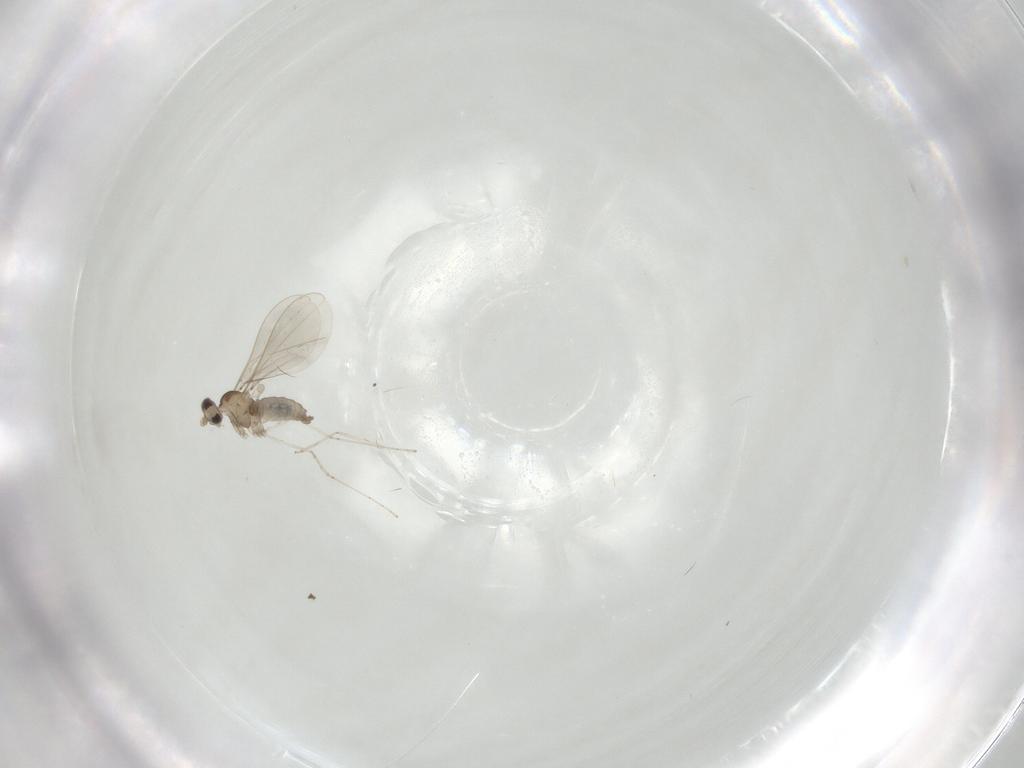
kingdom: Animalia
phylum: Arthropoda
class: Insecta
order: Diptera
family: Cecidomyiidae
